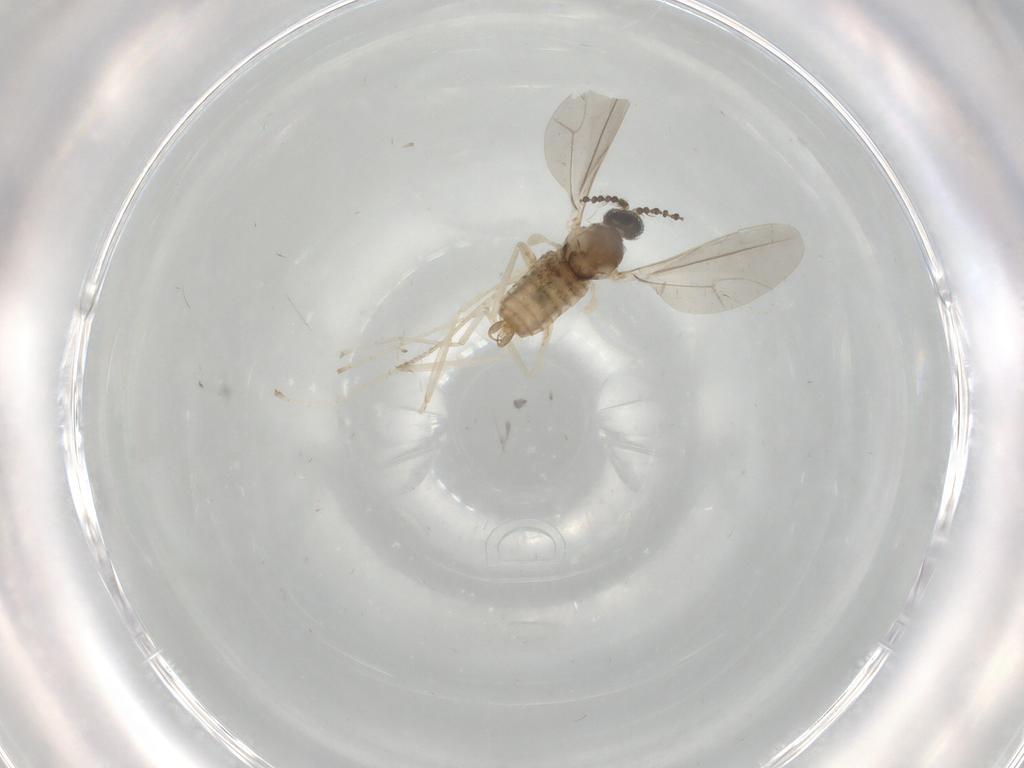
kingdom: Animalia
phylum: Arthropoda
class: Insecta
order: Diptera
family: Cecidomyiidae
